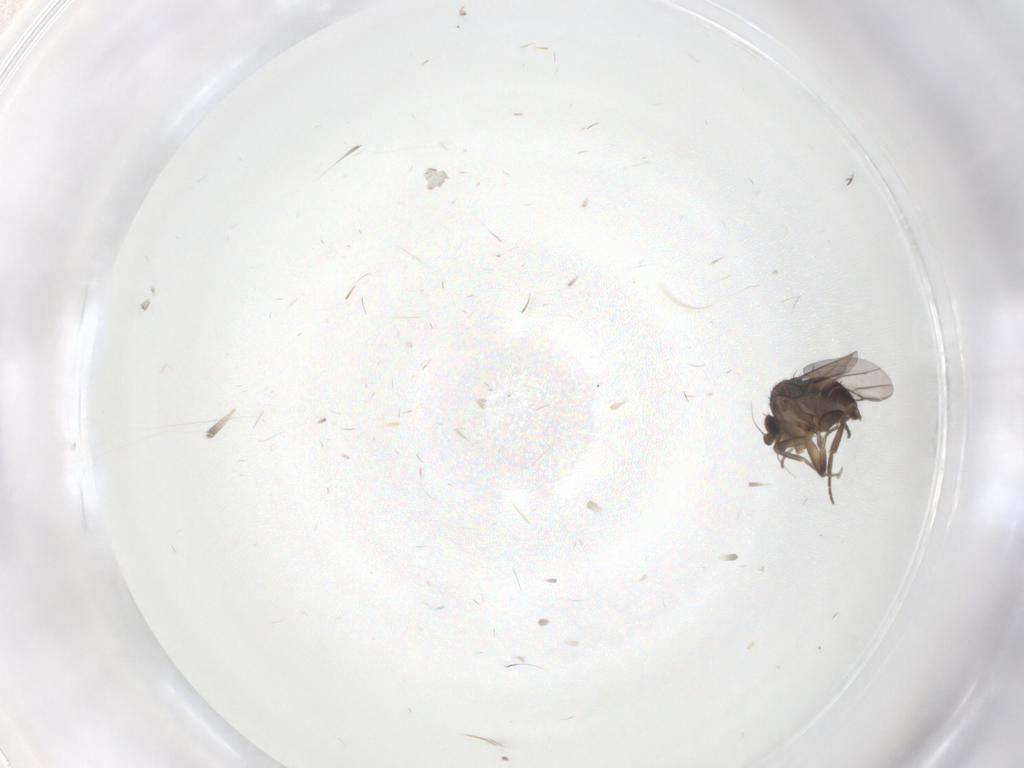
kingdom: Animalia
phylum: Arthropoda
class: Insecta
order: Diptera
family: Phoridae
